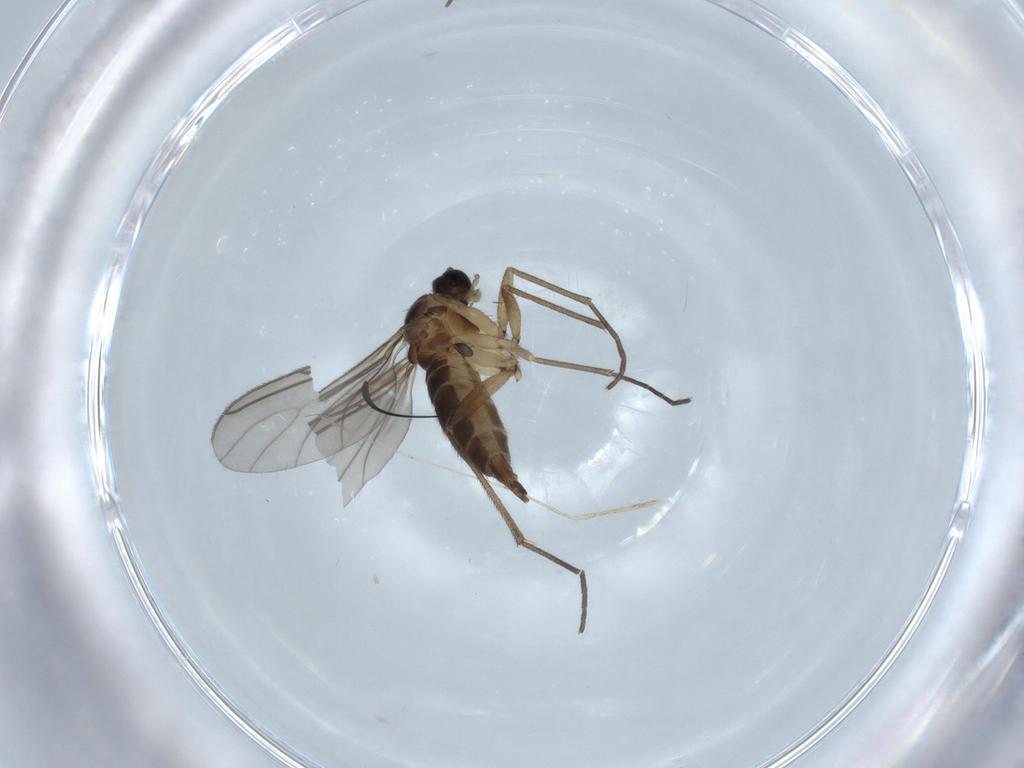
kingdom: Animalia
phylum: Arthropoda
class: Insecta
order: Diptera
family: Sciaridae
